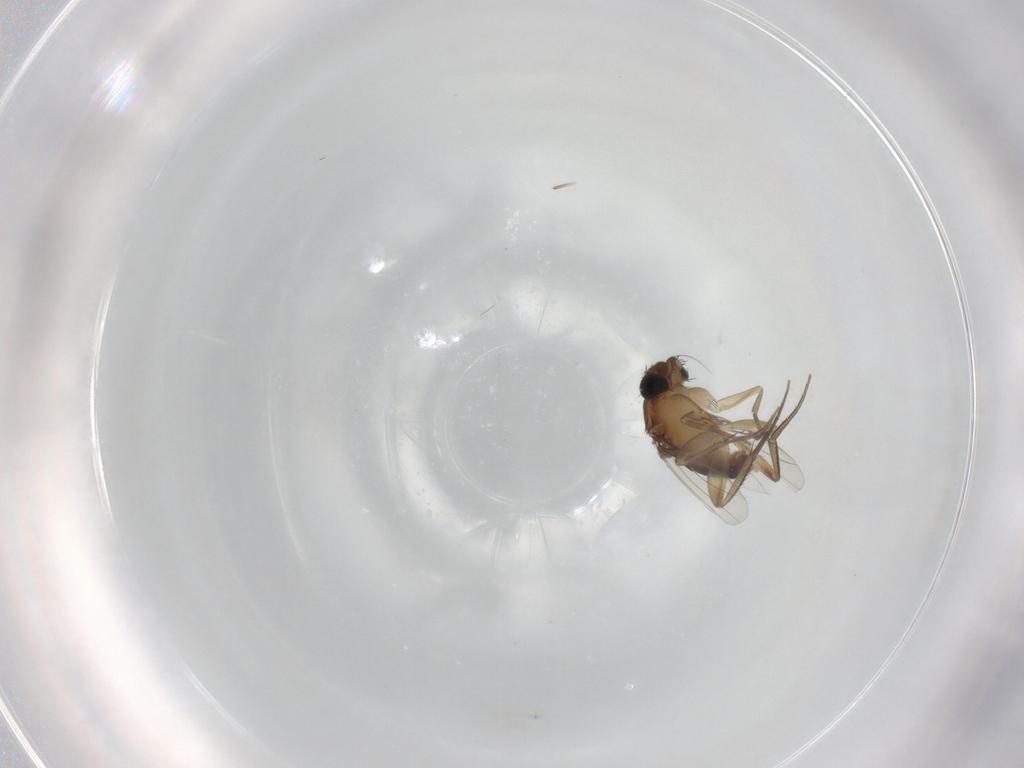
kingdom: Animalia
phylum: Arthropoda
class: Insecta
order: Diptera
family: Phoridae
